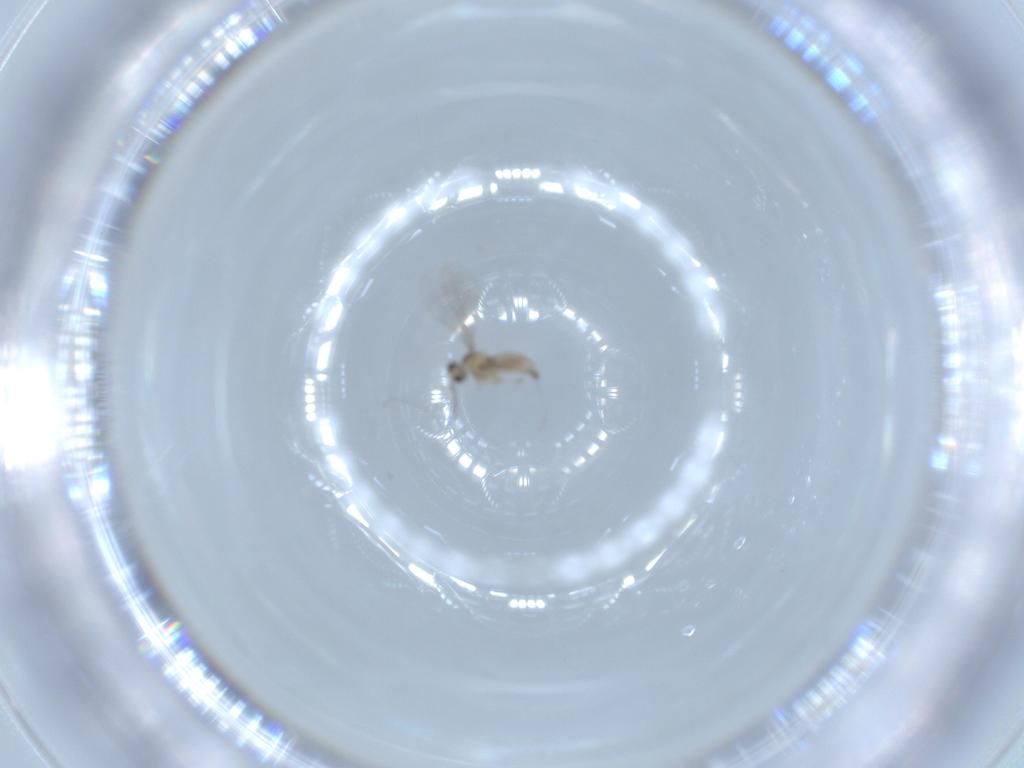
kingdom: Animalia
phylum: Arthropoda
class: Insecta
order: Diptera
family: Cecidomyiidae
